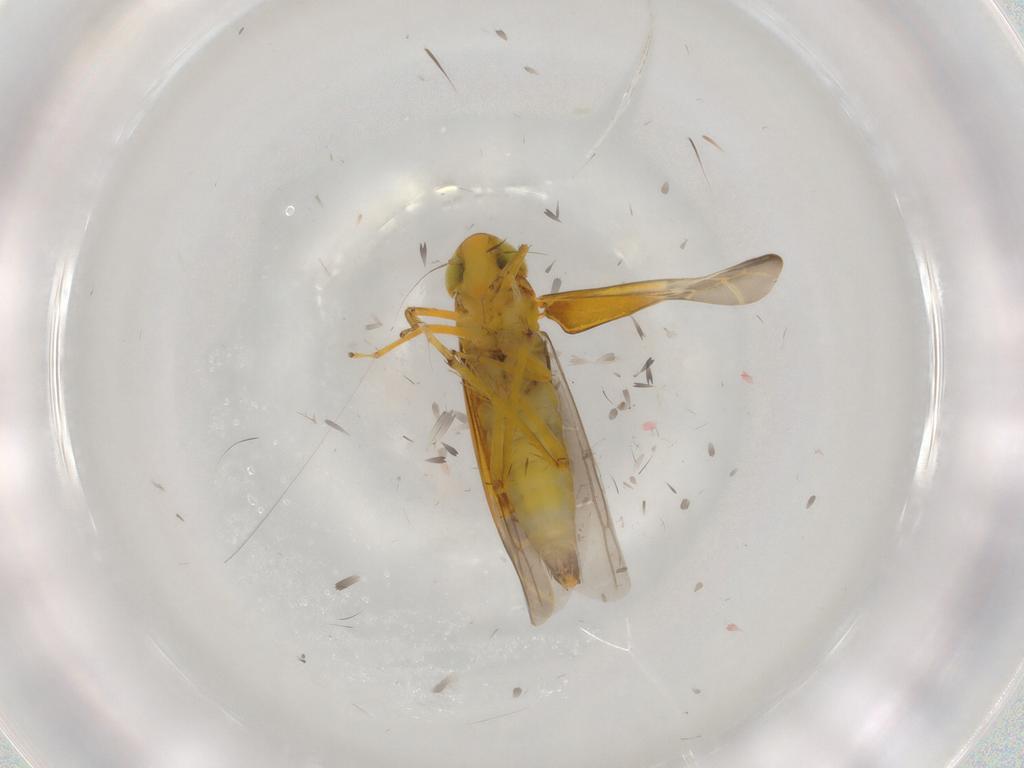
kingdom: Animalia
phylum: Arthropoda
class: Insecta
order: Hemiptera
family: Cicadellidae
